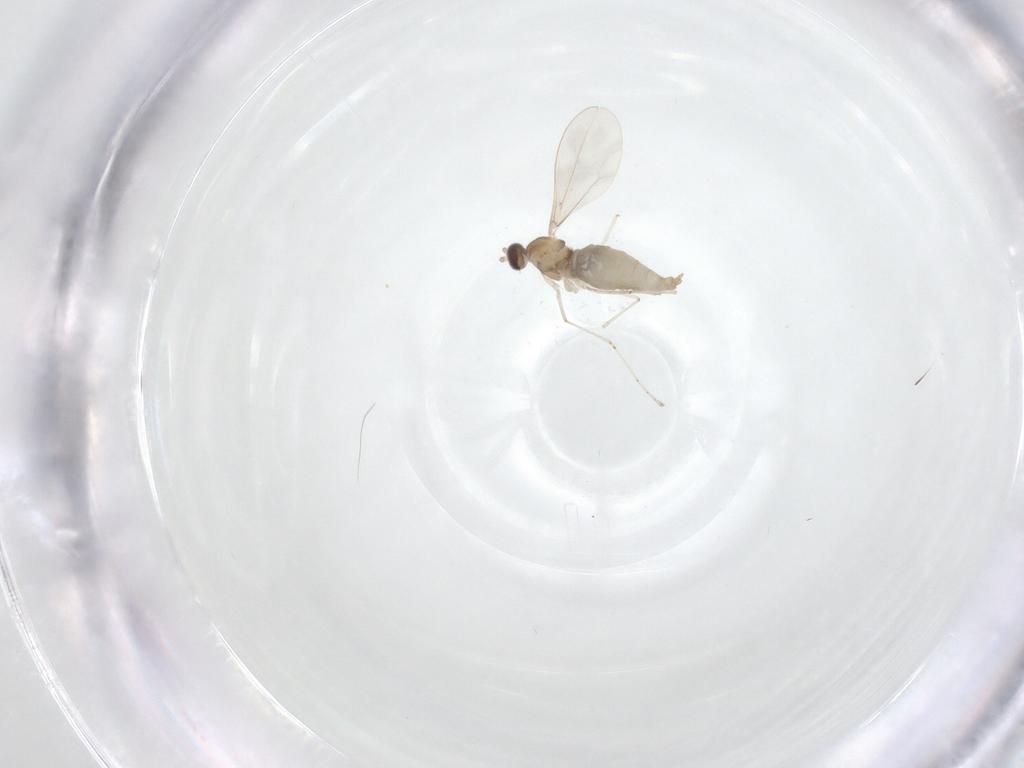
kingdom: Animalia
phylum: Arthropoda
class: Insecta
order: Diptera
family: Cecidomyiidae
